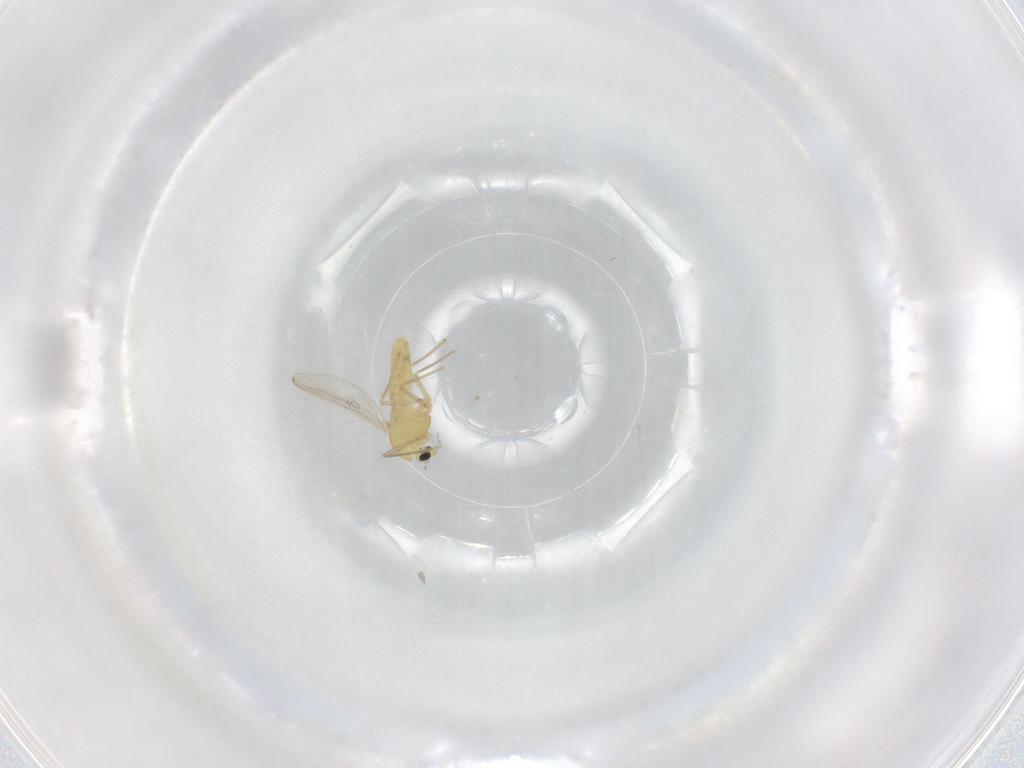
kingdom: Animalia
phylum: Arthropoda
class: Insecta
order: Diptera
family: Chironomidae
